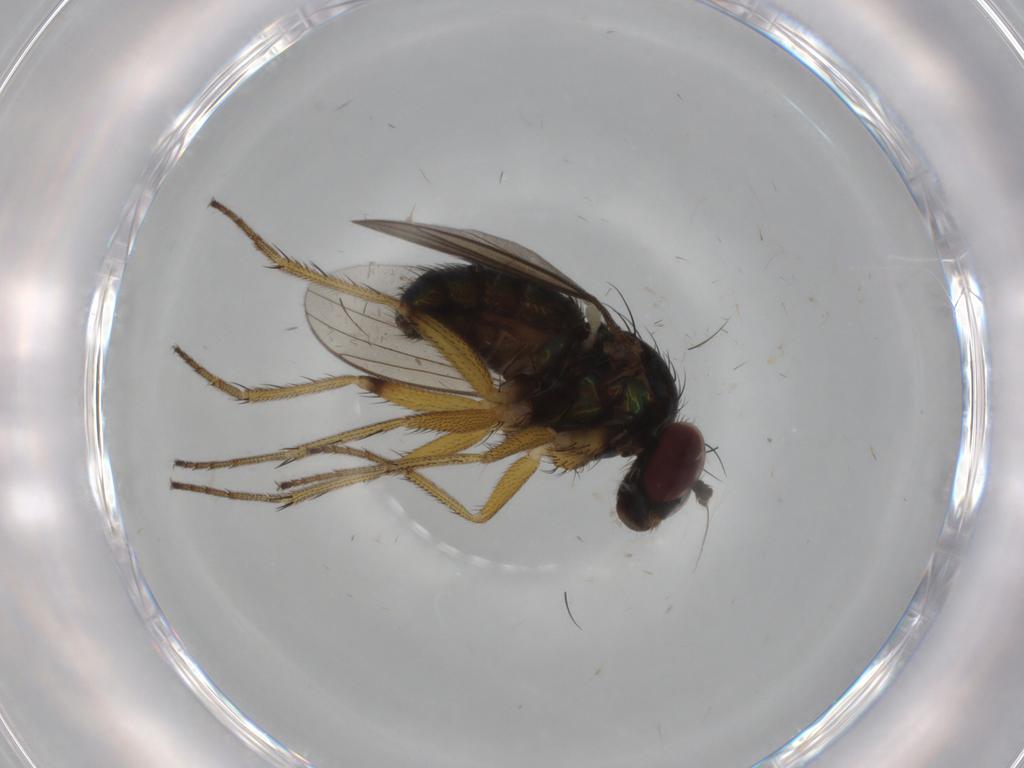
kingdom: Animalia
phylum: Arthropoda
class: Insecta
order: Diptera
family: Dolichopodidae
